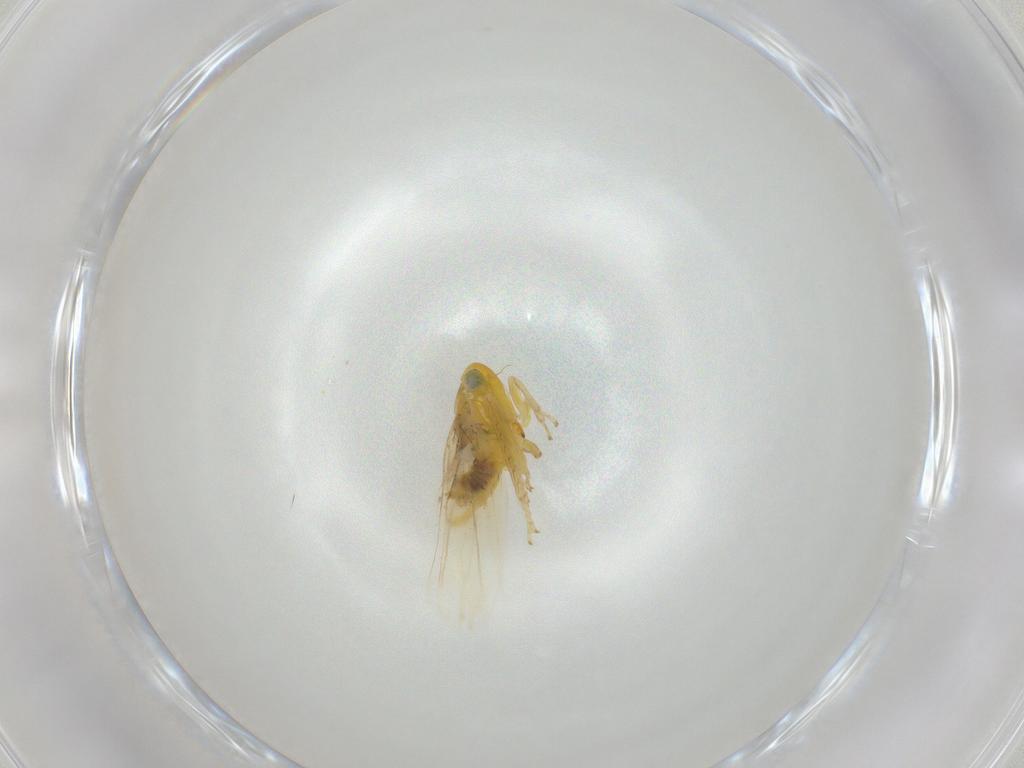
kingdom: Animalia
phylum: Arthropoda
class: Insecta
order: Hemiptera
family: Cicadellidae
